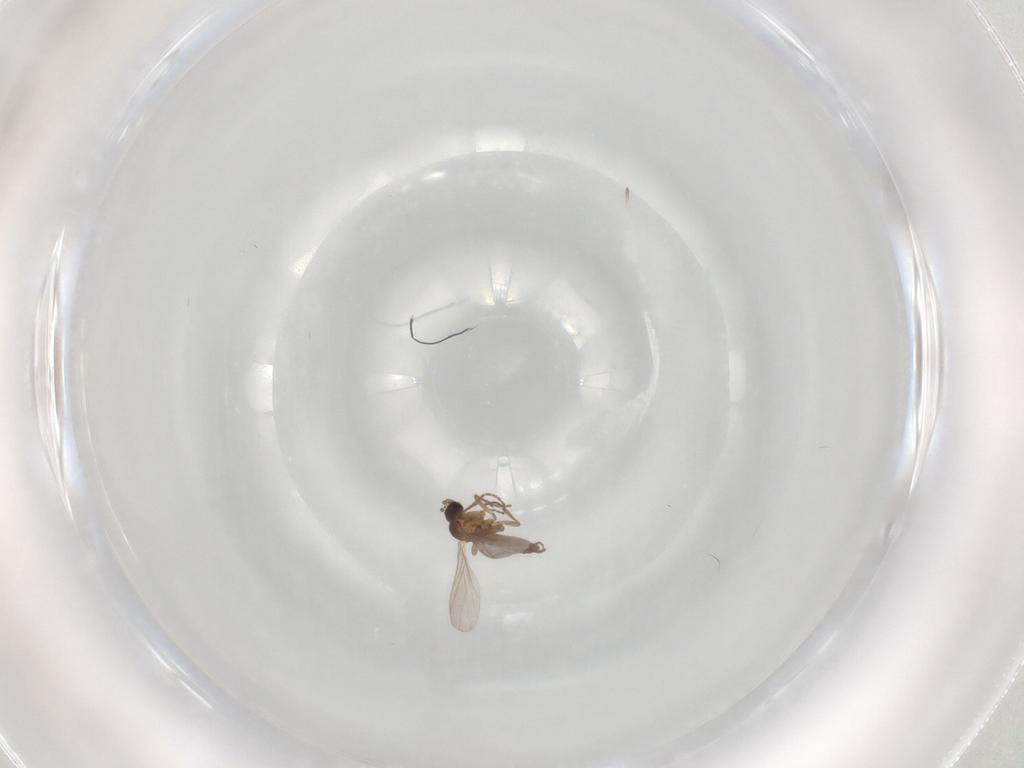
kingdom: Animalia
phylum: Arthropoda
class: Insecta
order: Diptera
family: Sciaridae
